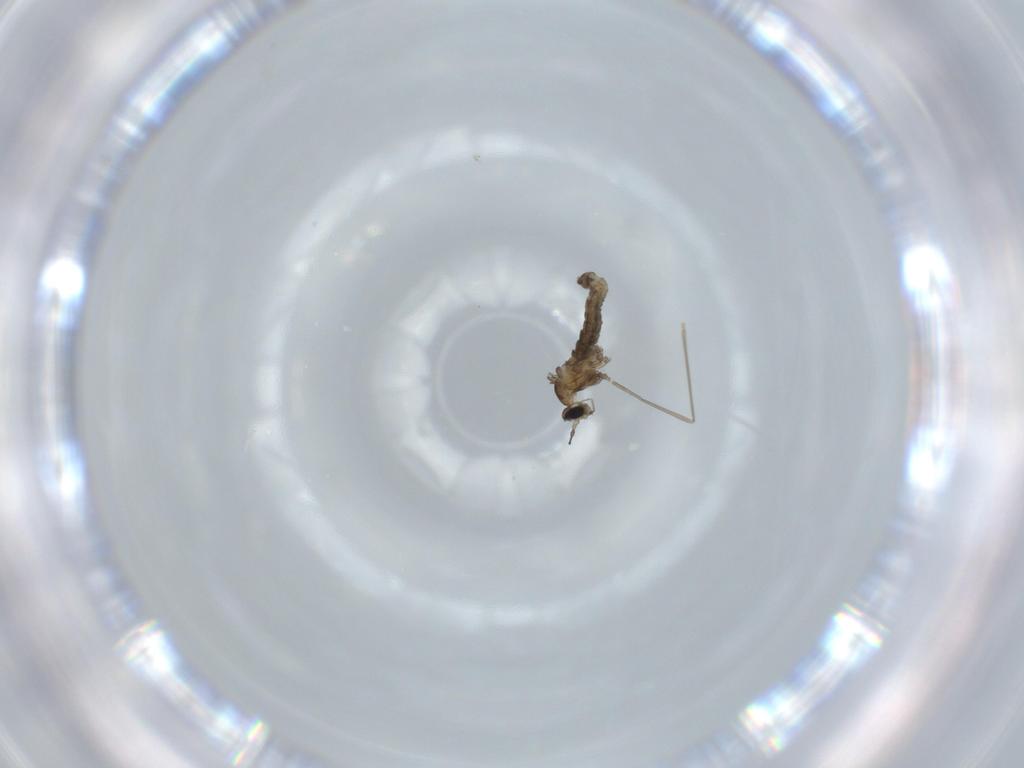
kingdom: Animalia
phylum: Arthropoda
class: Insecta
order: Diptera
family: Cecidomyiidae
